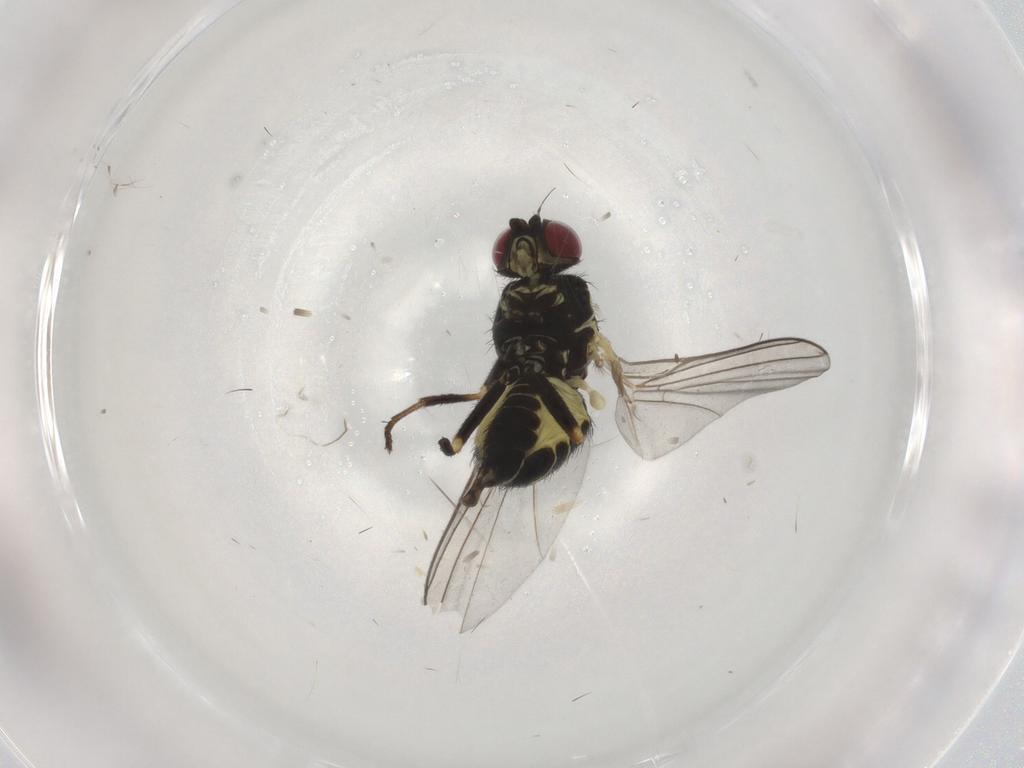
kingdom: Animalia
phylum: Arthropoda
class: Insecta
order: Diptera
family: Agromyzidae
